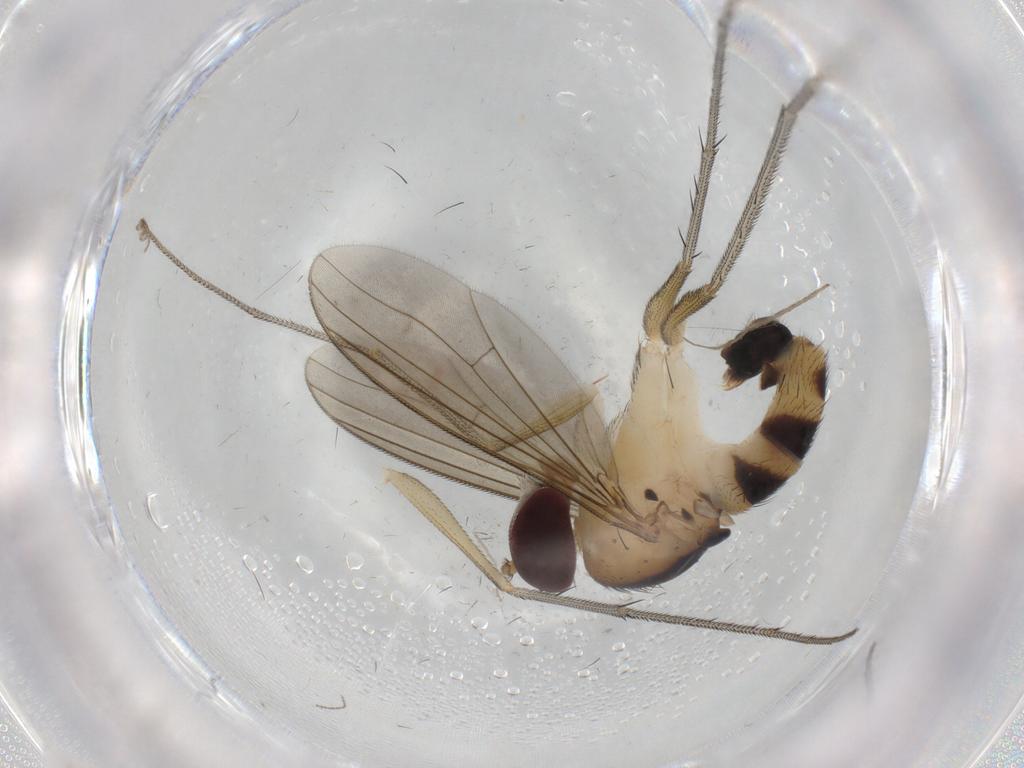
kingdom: Animalia
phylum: Arthropoda
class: Insecta
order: Diptera
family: Cecidomyiidae
